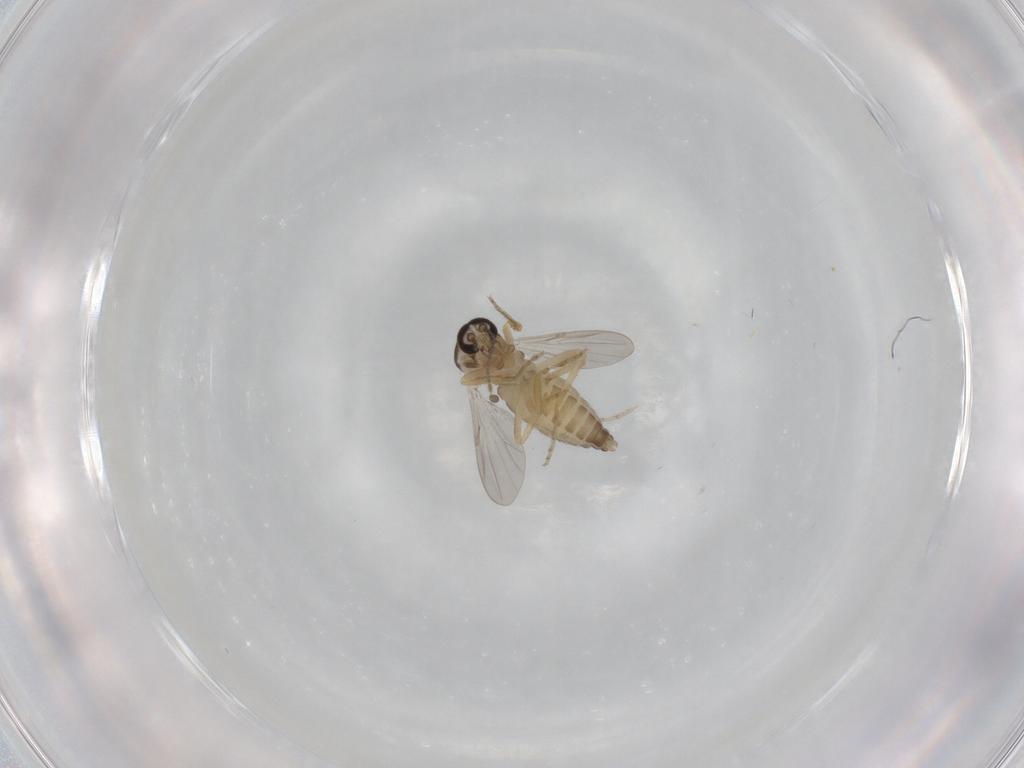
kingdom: Animalia
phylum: Arthropoda
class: Insecta
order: Diptera
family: Ceratopogonidae
